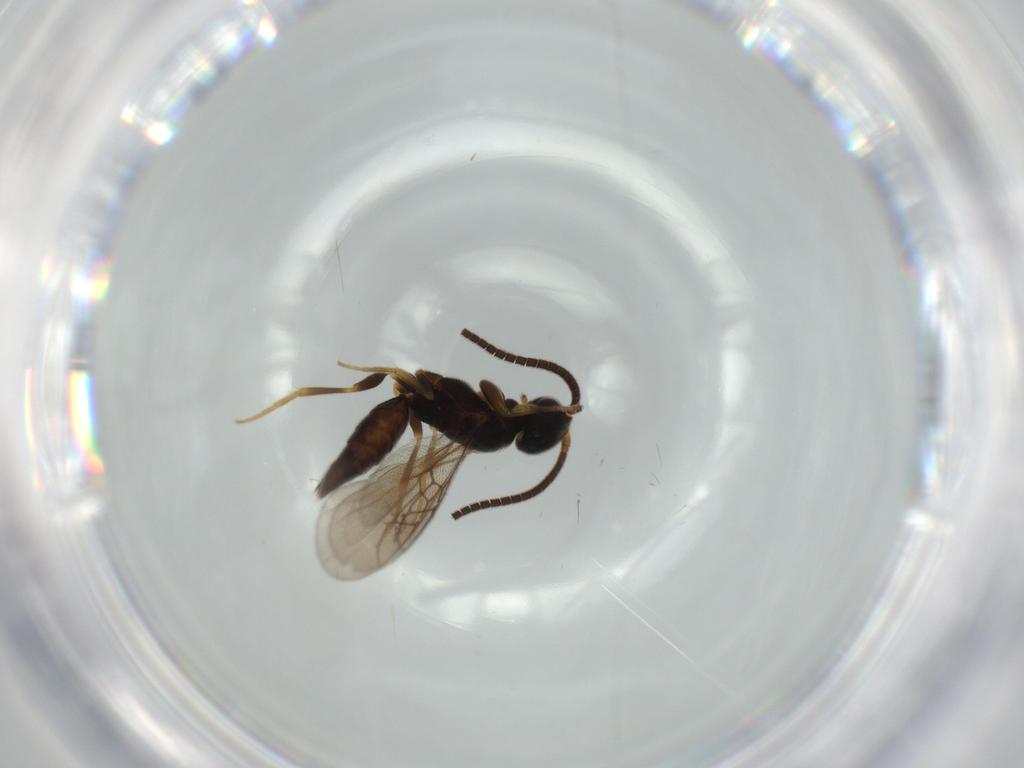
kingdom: Animalia
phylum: Arthropoda
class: Insecta
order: Hymenoptera
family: Sclerogibbidae
